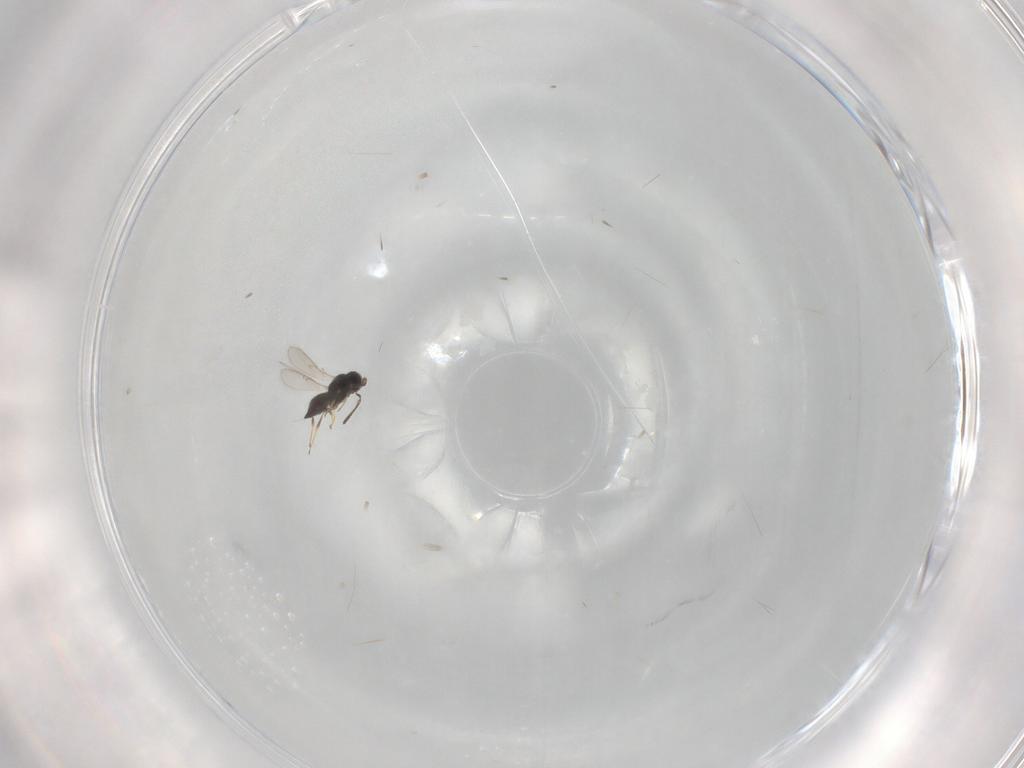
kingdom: Animalia
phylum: Arthropoda
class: Insecta
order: Hymenoptera
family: Scelionidae
